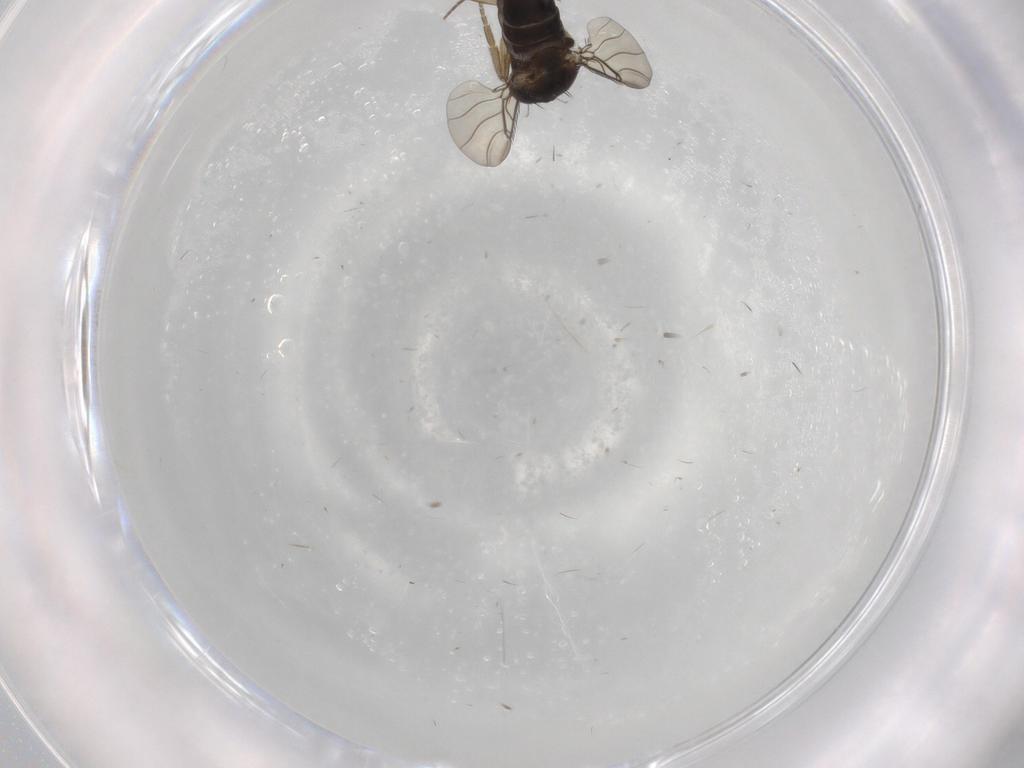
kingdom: Animalia
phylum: Arthropoda
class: Insecta
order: Diptera
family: Phoridae
